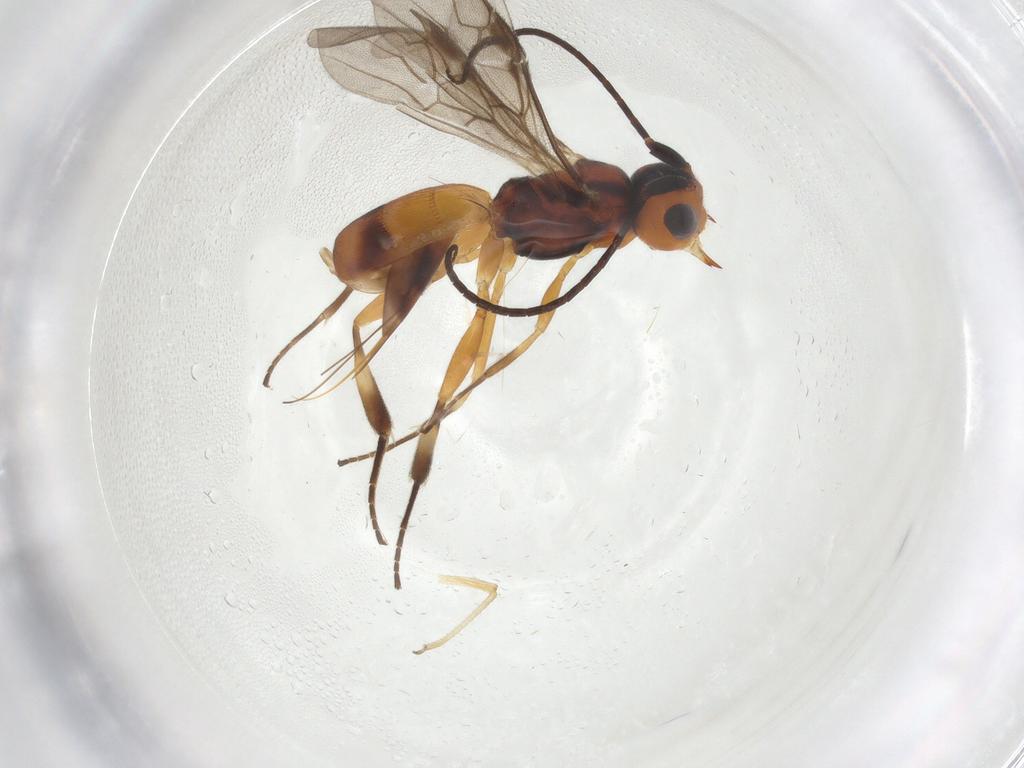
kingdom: Animalia
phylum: Arthropoda
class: Insecta
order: Hymenoptera
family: Braconidae
